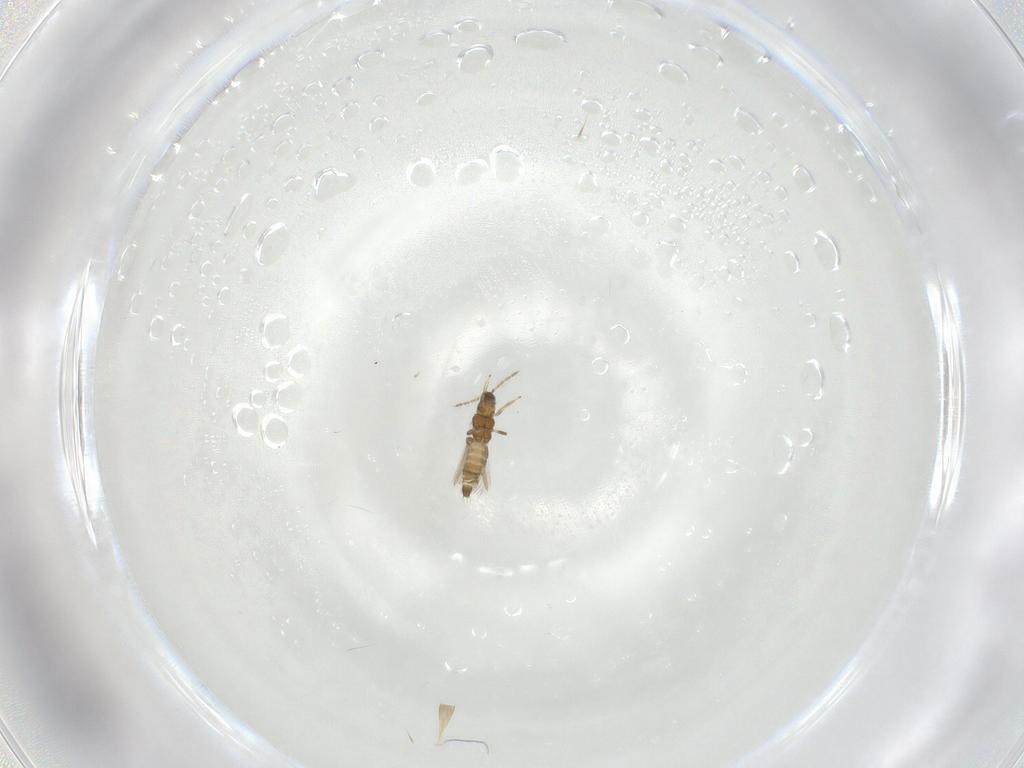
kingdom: Animalia
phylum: Arthropoda
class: Insecta
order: Thysanoptera
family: Thripidae
